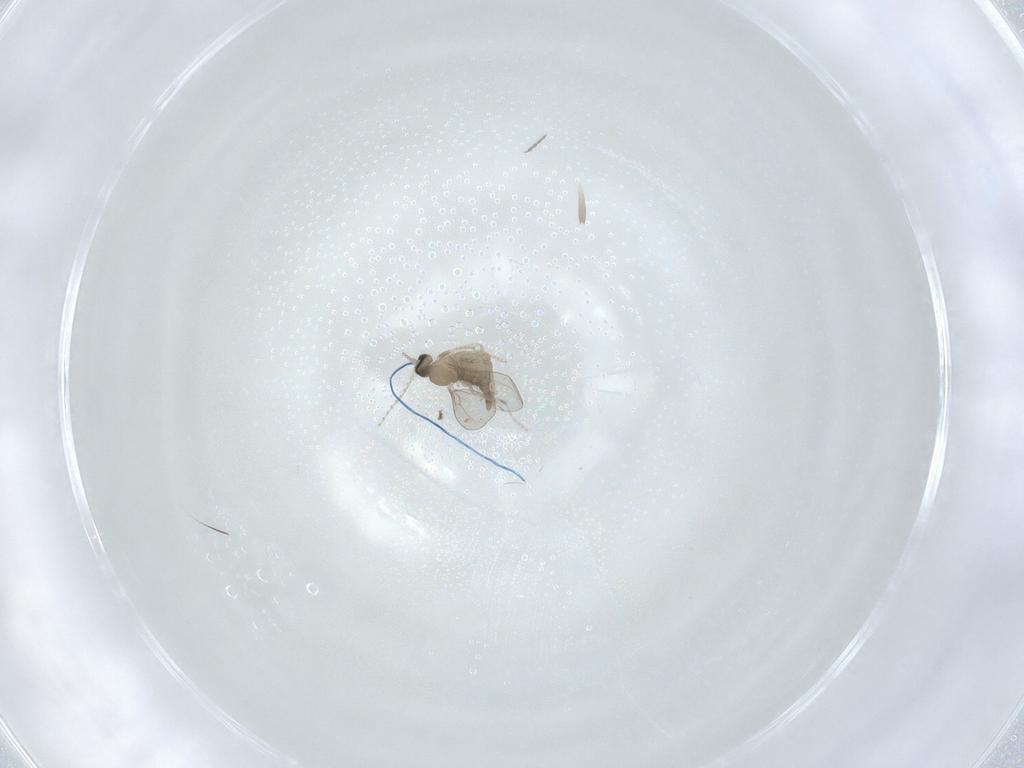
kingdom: Animalia
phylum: Arthropoda
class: Insecta
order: Diptera
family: Cecidomyiidae
